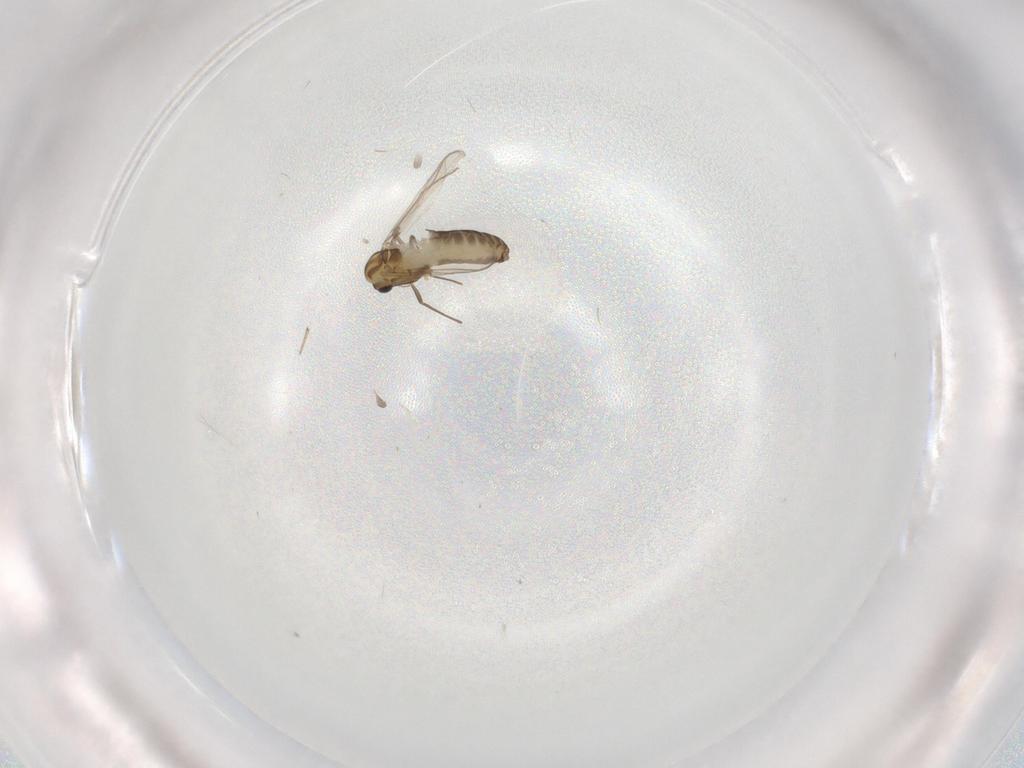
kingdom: Animalia
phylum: Arthropoda
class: Insecta
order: Diptera
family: Chironomidae
